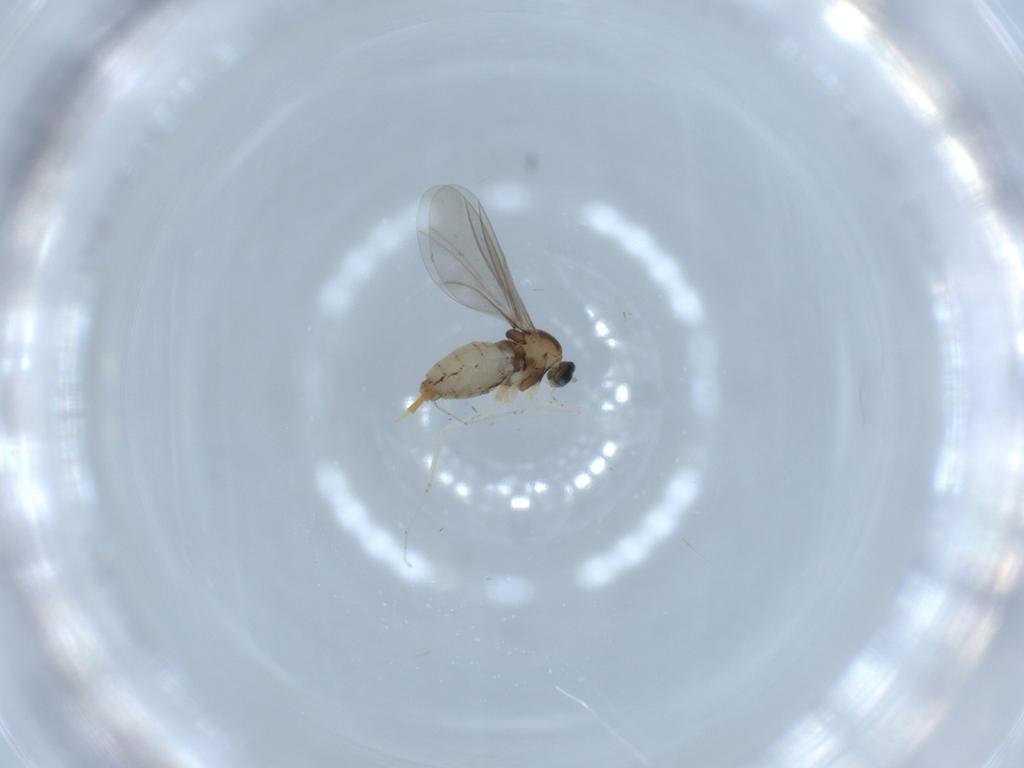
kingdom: Animalia
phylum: Arthropoda
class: Insecta
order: Diptera
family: Cecidomyiidae
